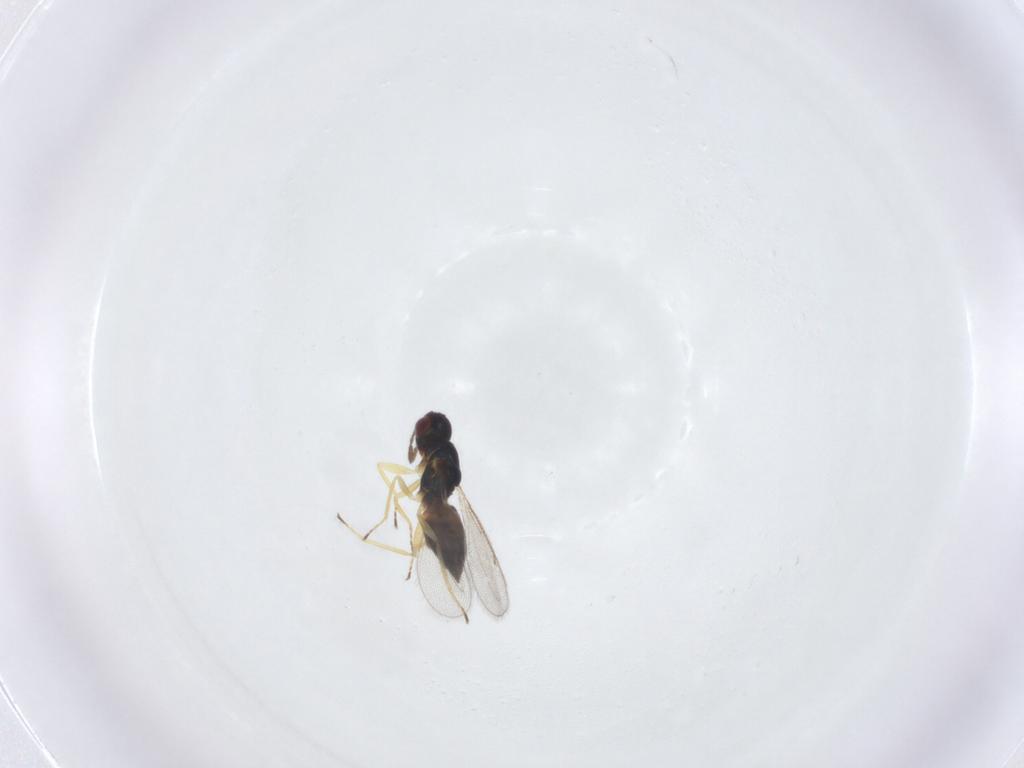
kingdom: Animalia
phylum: Arthropoda
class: Insecta
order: Hymenoptera
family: Eulophidae
